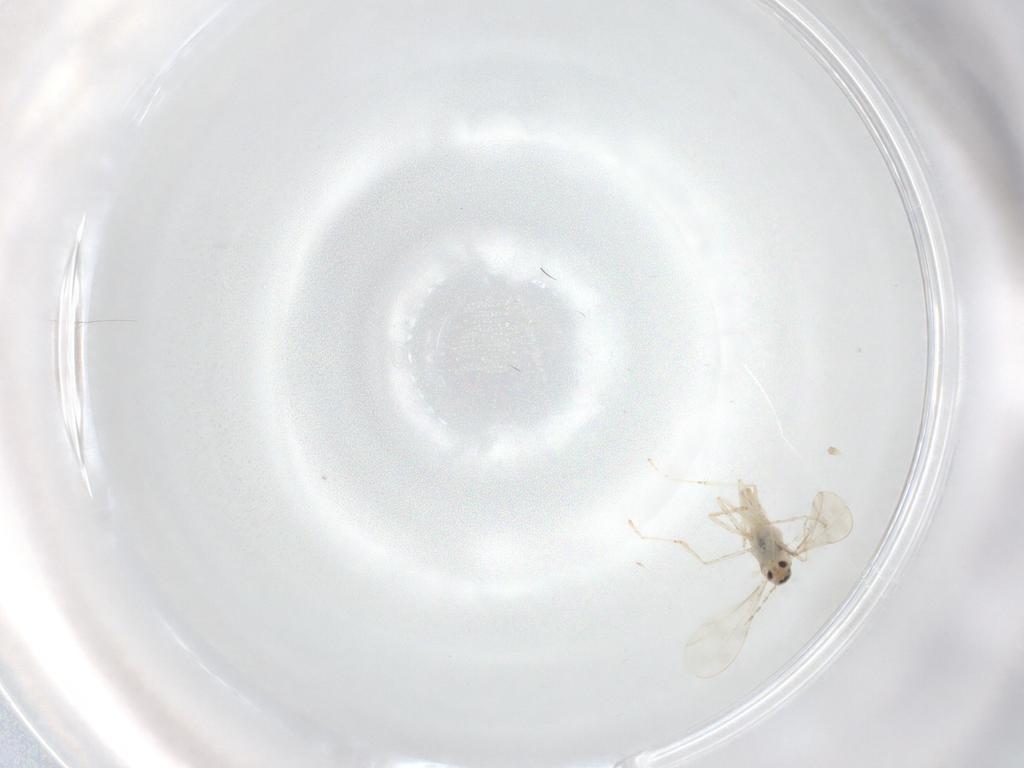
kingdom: Animalia
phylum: Arthropoda
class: Insecta
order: Diptera
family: Cecidomyiidae
